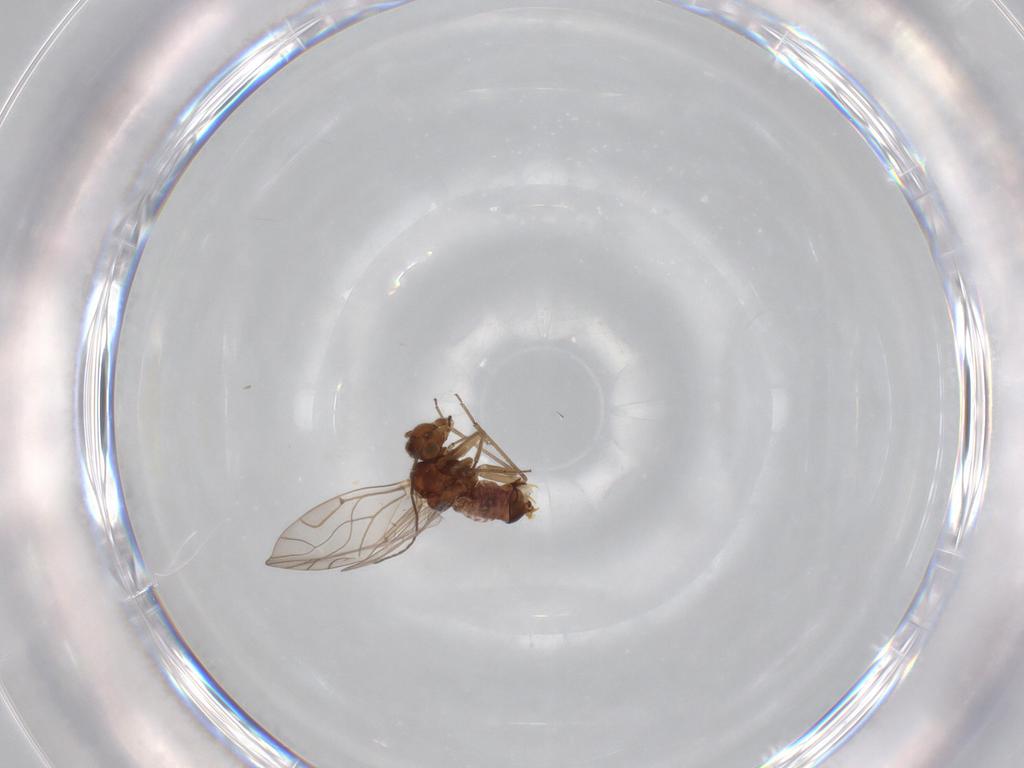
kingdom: Animalia
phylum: Arthropoda
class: Insecta
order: Psocodea
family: Lachesillidae
